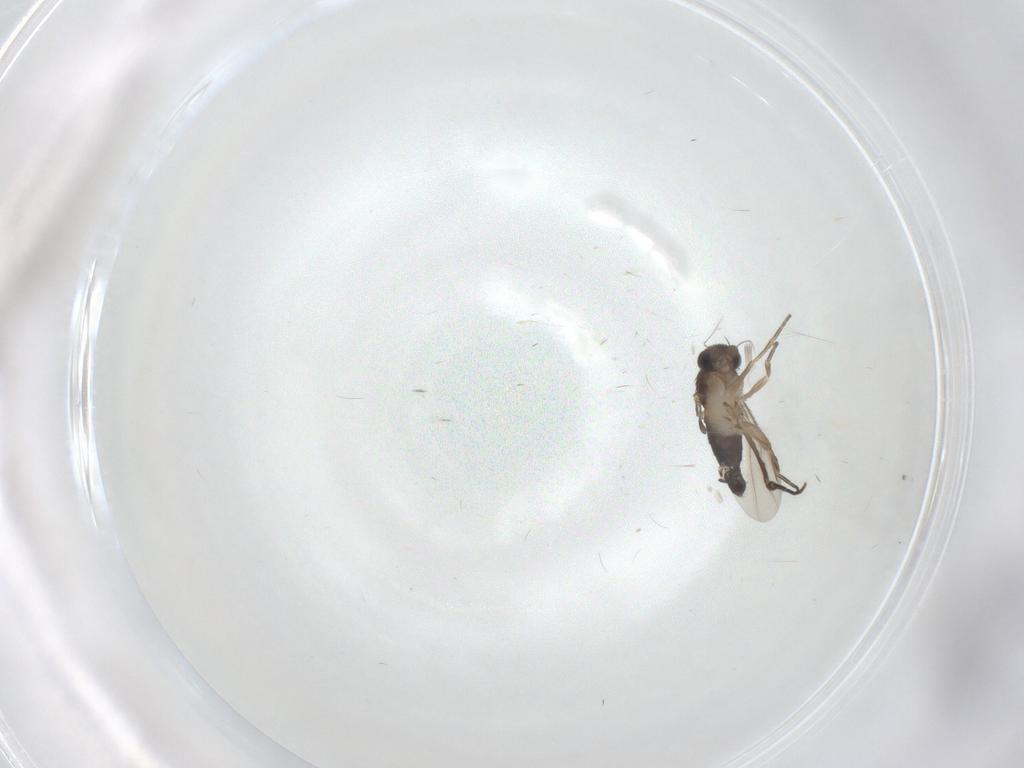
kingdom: Animalia
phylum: Arthropoda
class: Insecta
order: Diptera
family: Phoridae
